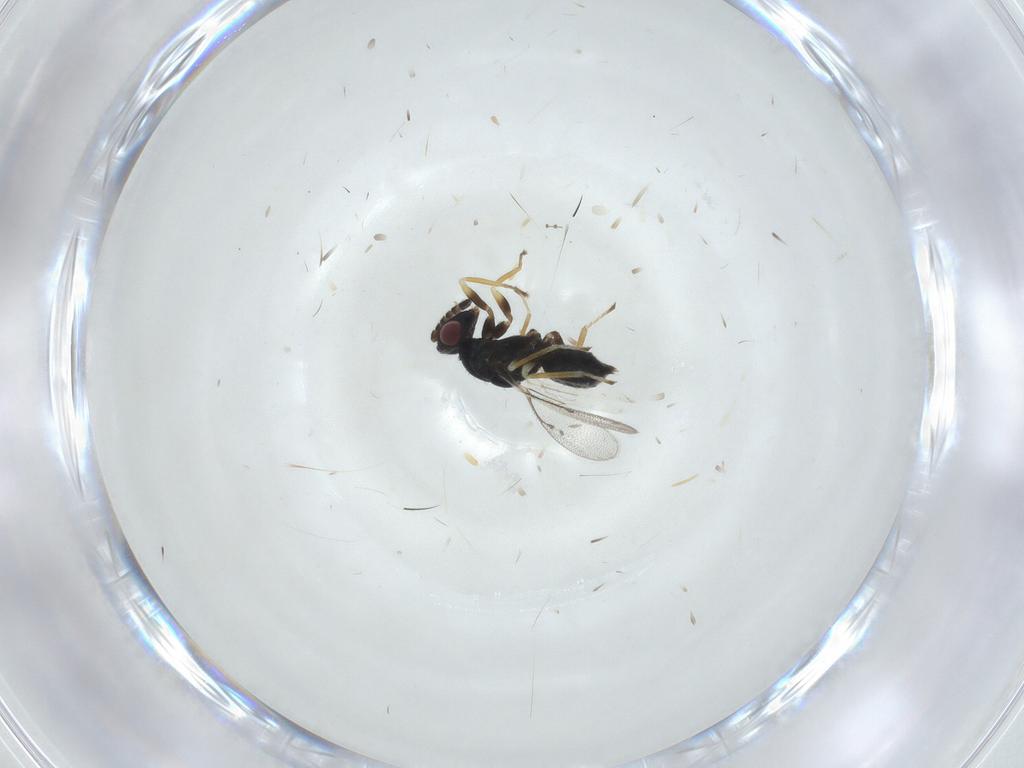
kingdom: Animalia
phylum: Arthropoda
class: Insecta
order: Hymenoptera
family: Eulophidae
